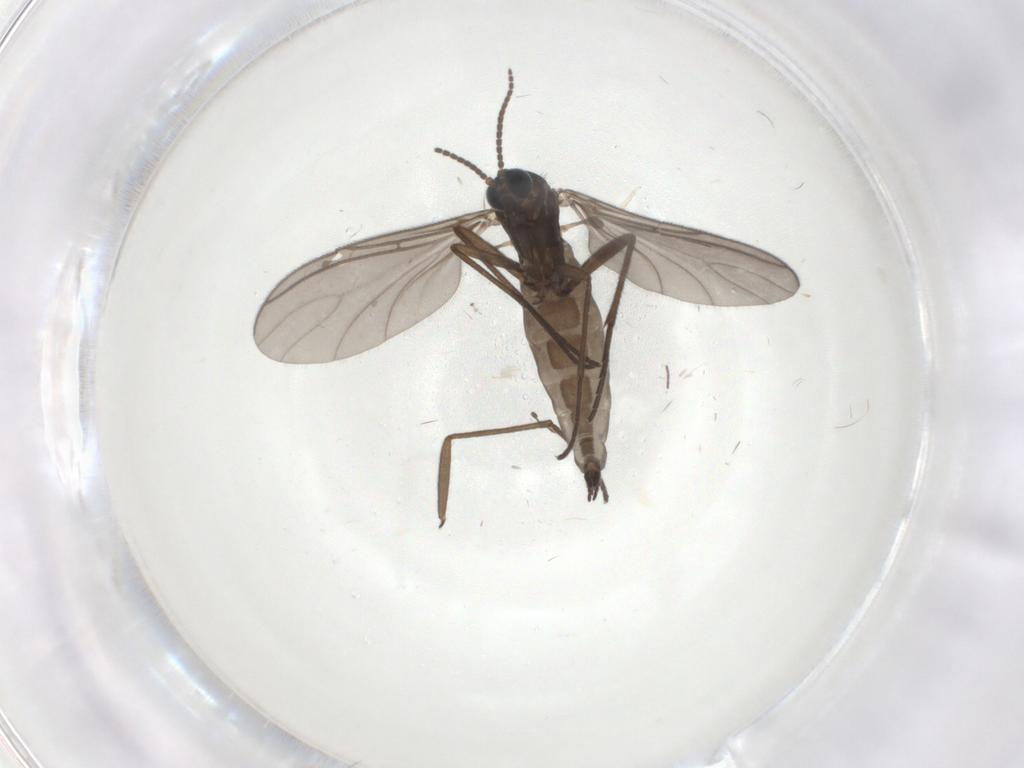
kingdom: Animalia
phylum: Arthropoda
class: Insecta
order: Diptera
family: Sciaridae
